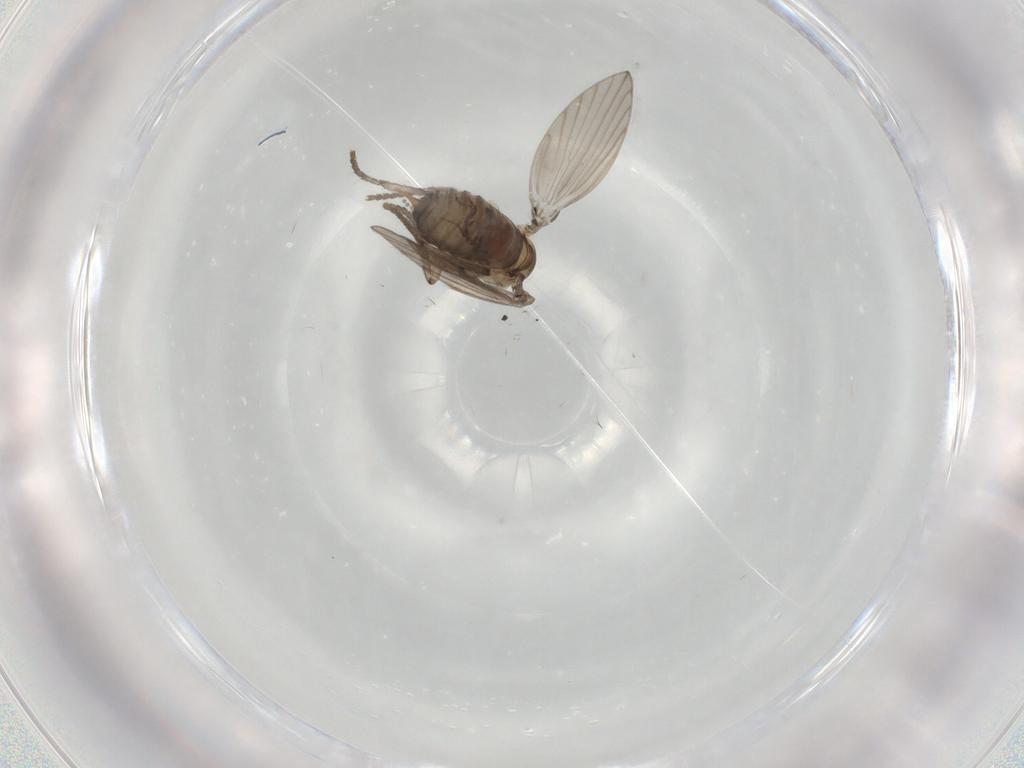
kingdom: Animalia
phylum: Arthropoda
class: Insecta
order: Diptera
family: Psychodidae
